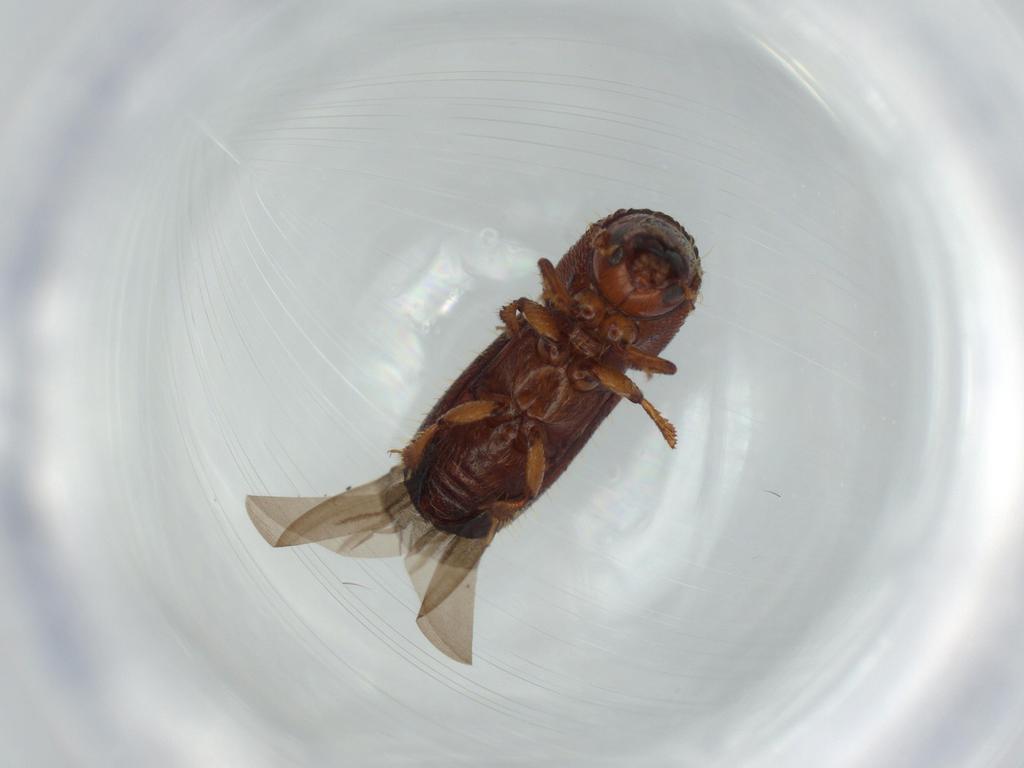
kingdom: Animalia
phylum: Arthropoda
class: Insecta
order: Coleoptera
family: Curculionidae
